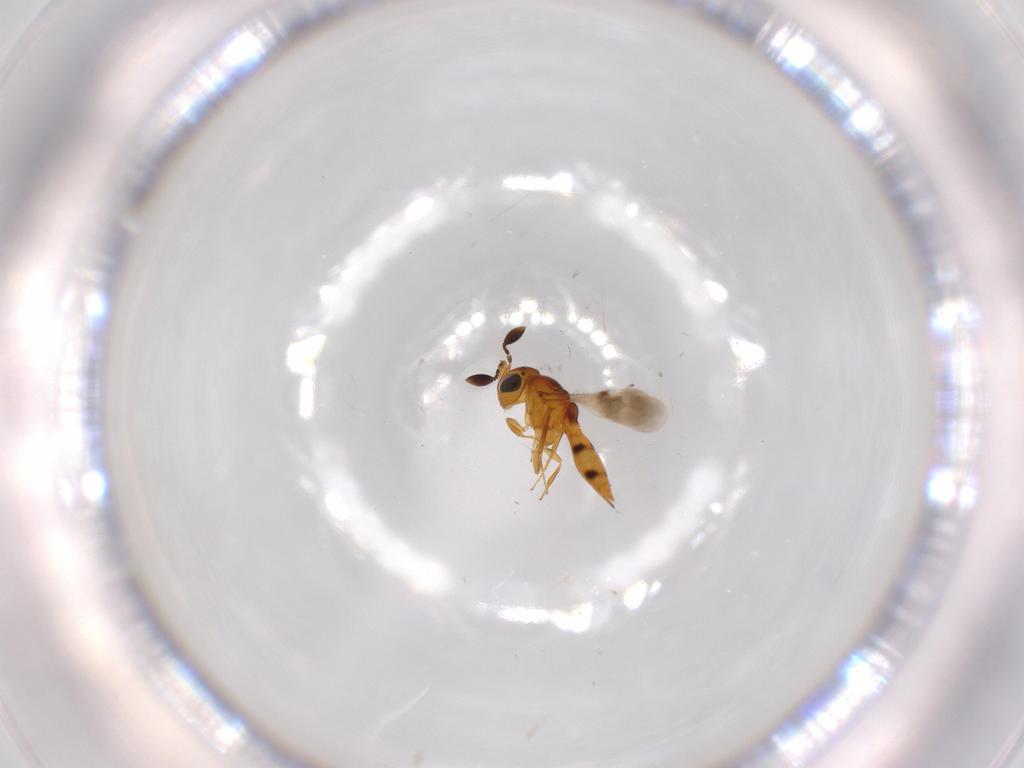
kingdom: Animalia
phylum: Arthropoda
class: Insecta
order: Hymenoptera
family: Scelionidae
